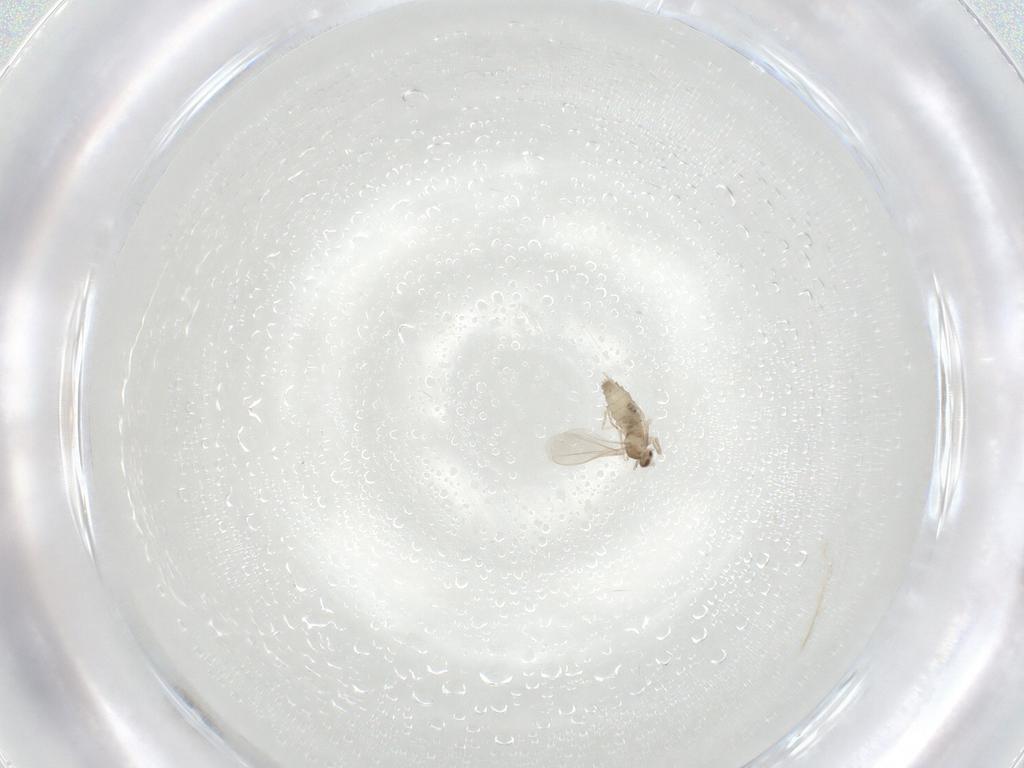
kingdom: Animalia
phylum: Arthropoda
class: Insecta
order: Diptera
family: Cecidomyiidae
